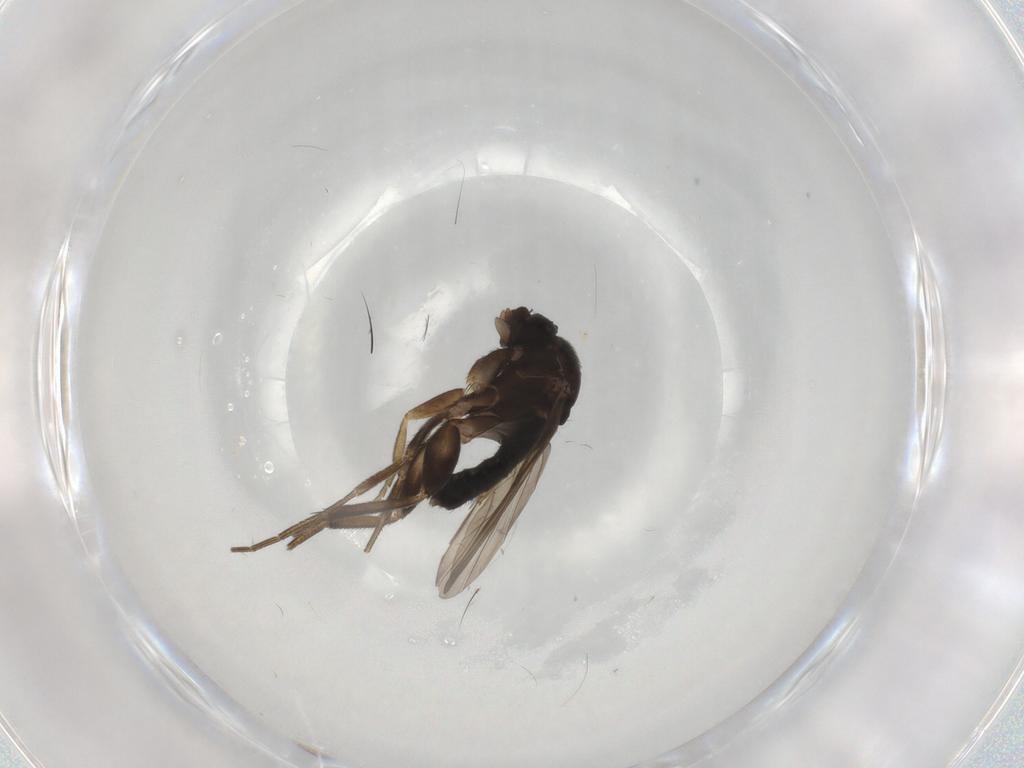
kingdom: Animalia
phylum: Arthropoda
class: Insecta
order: Diptera
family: Phoridae
